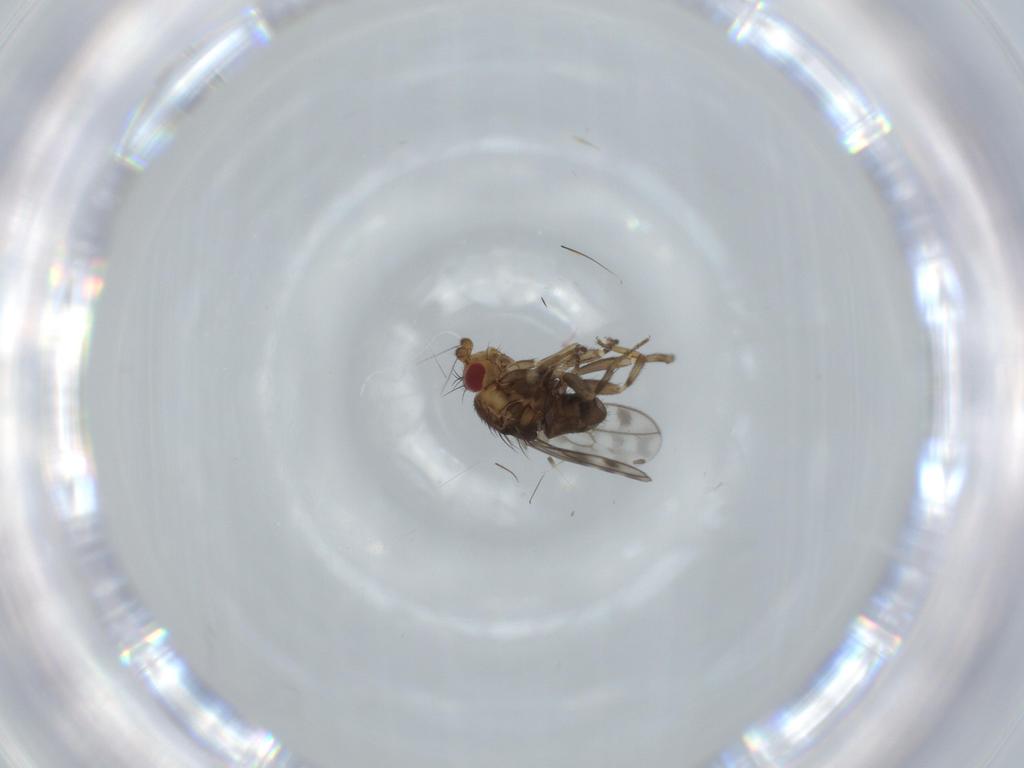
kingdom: Animalia
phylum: Arthropoda
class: Insecta
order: Diptera
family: Sphaeroceridae
